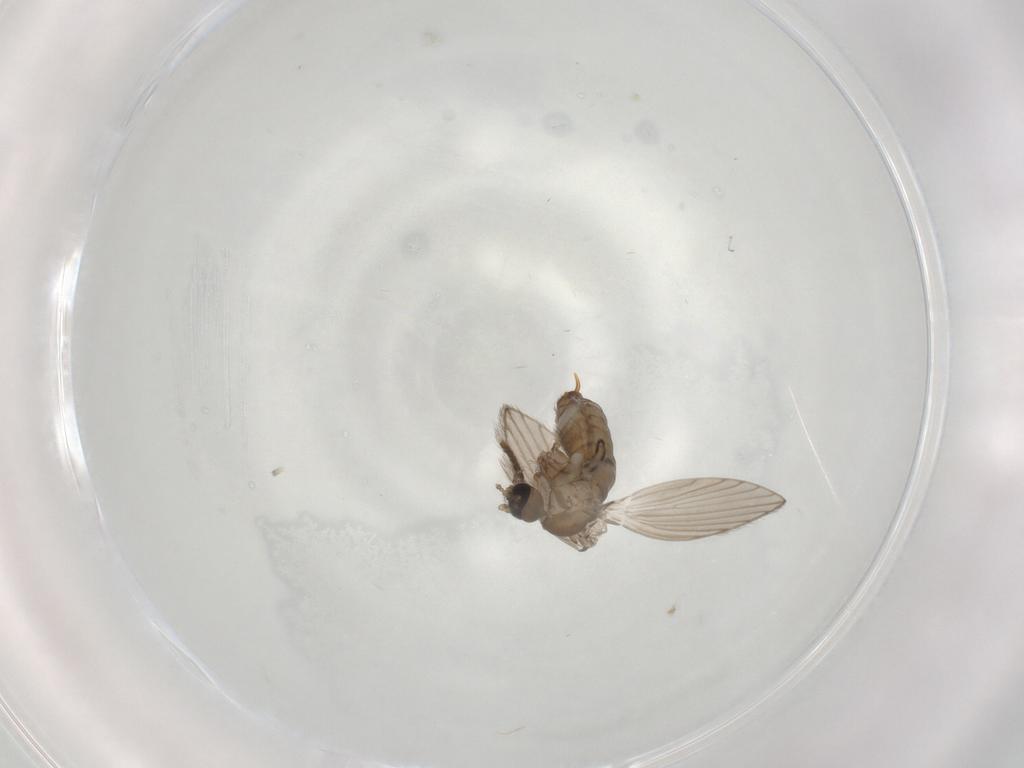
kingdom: Animalia
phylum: Arthropoda
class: Insecta
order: Diptera
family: Psychodidae
